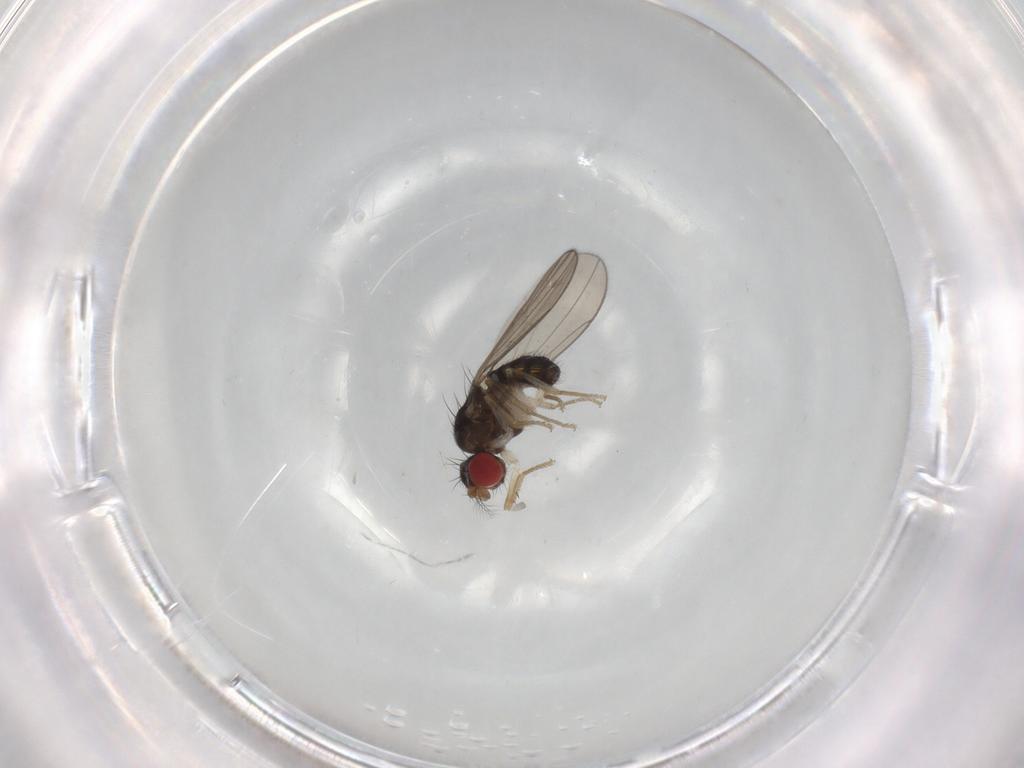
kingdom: Animalia
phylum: Arthropoda
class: Insecta
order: Diptera
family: Drosophilidae
